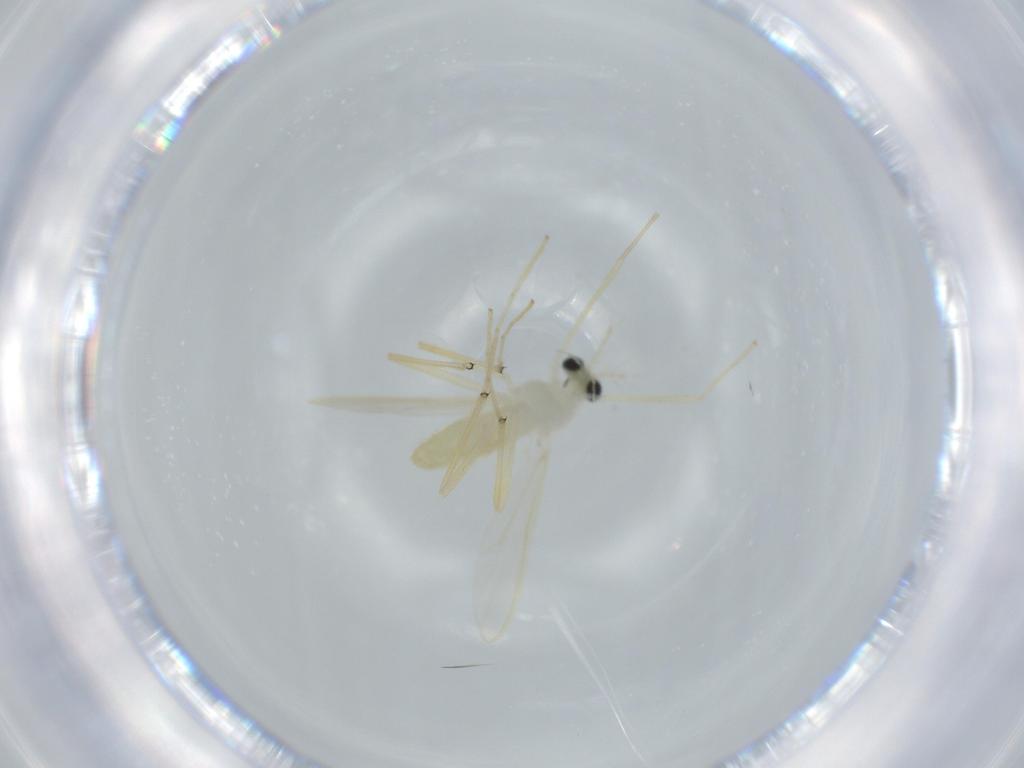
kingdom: Animalia
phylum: Arthropoda
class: Insecta
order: Diptera
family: Chironomidae
